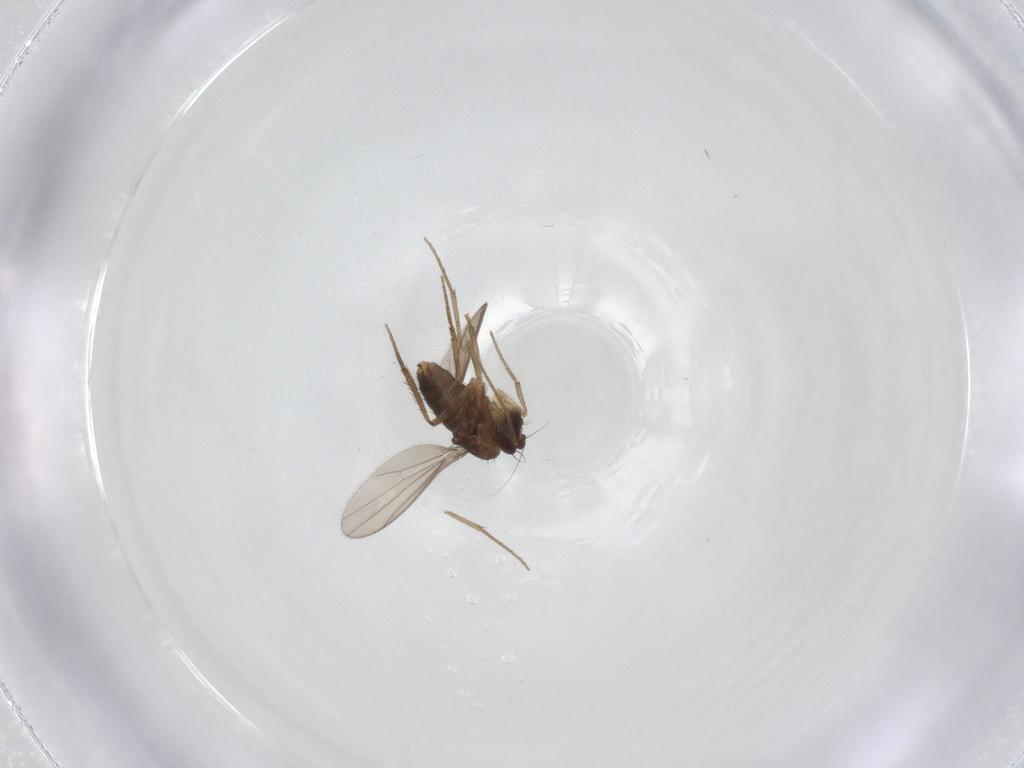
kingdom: Animalia
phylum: Arthropoda
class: Insecta
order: Diptera
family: Dolichopodidae
